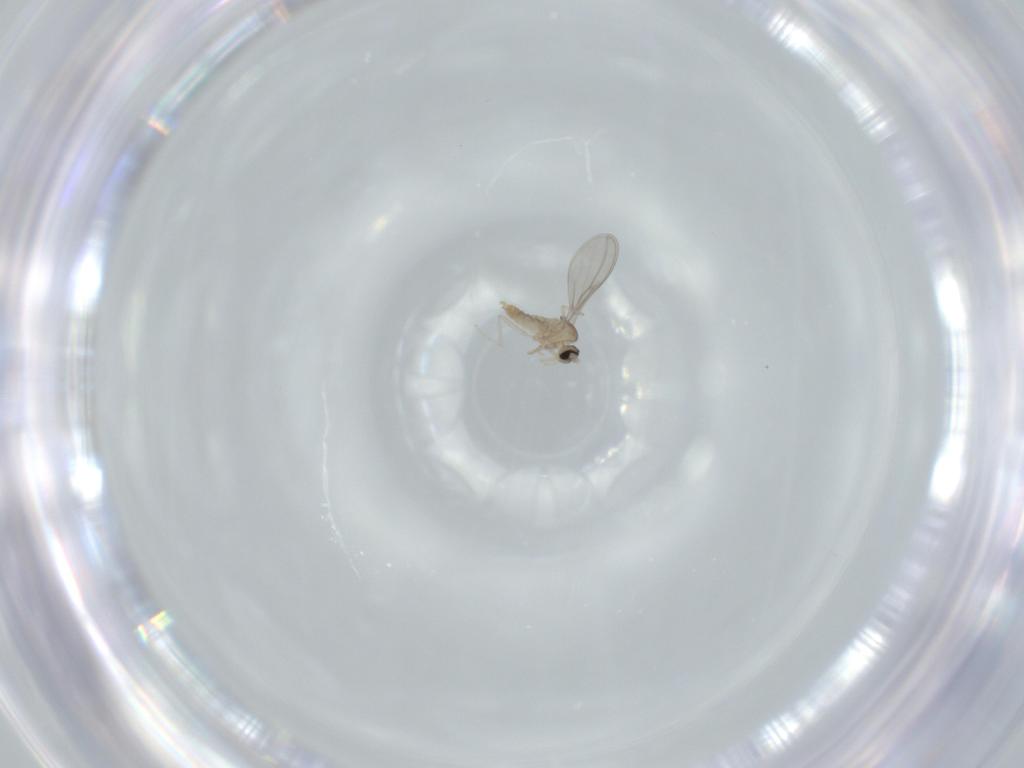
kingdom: Animalia
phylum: Arthropoda
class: Insecta
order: Diptera
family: Cecidomyiidae
